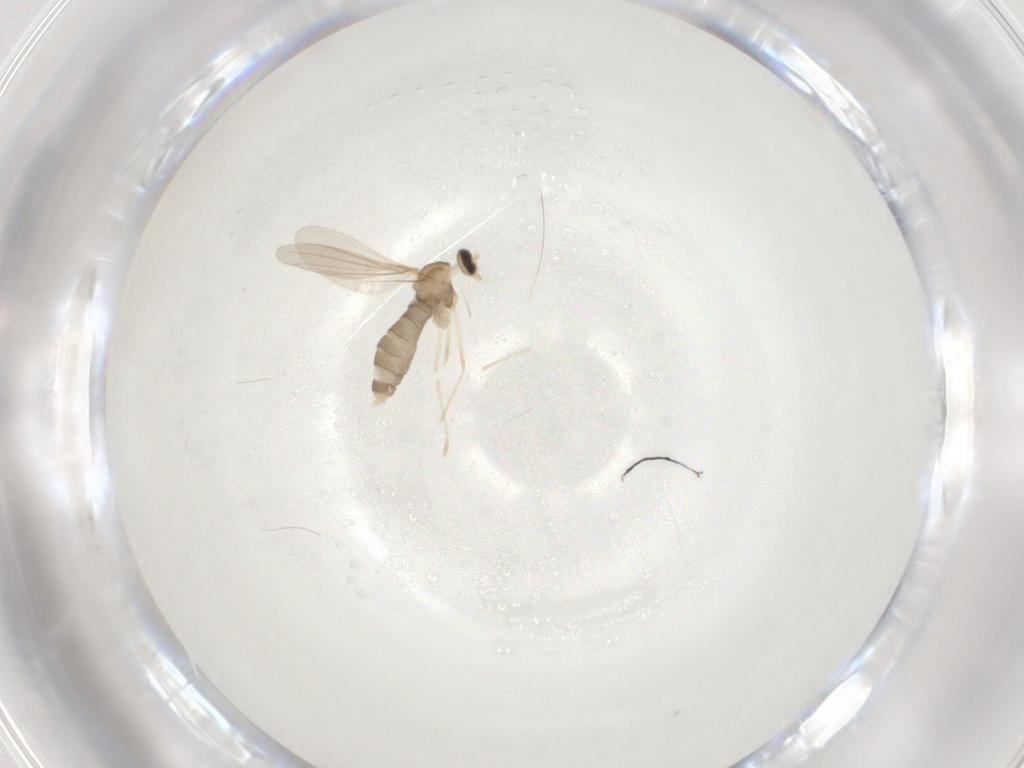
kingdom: Animalia
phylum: Arthropoda
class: Insecta
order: Diptera
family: Cecidomyiidae
